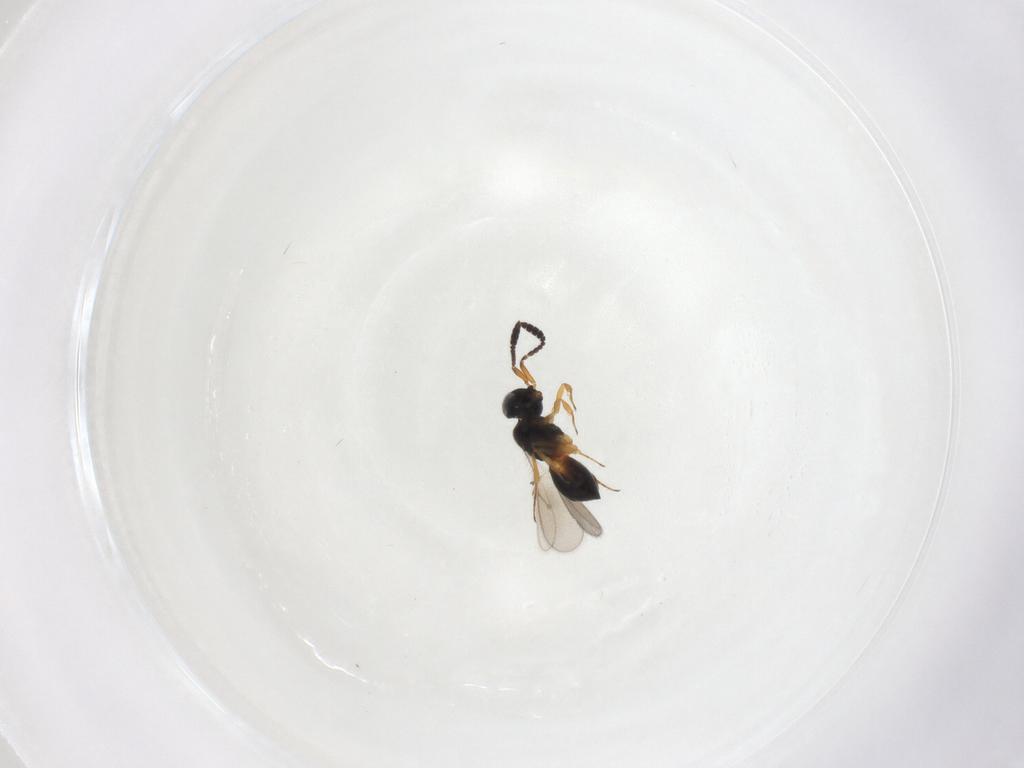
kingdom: Animalia
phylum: Arthropoda
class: Insecta
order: Hymenoptera
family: Scelionidae
